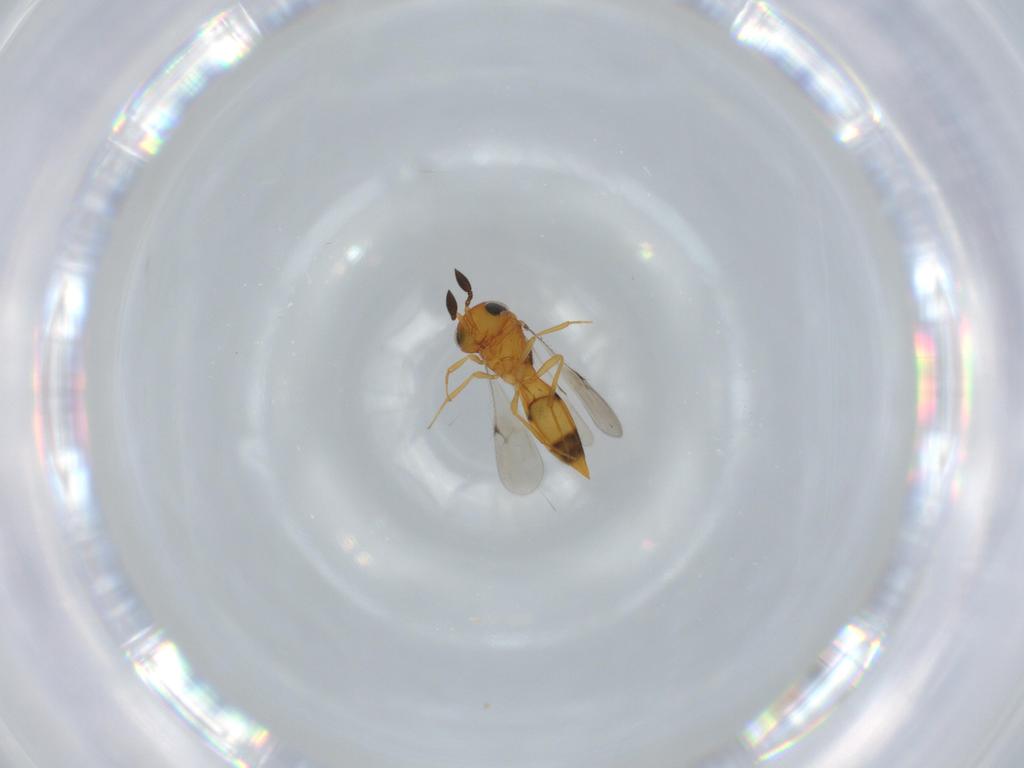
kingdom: Animalia
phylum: Arthropoda
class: Insecta
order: Hymenoptera
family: Scelionidae
